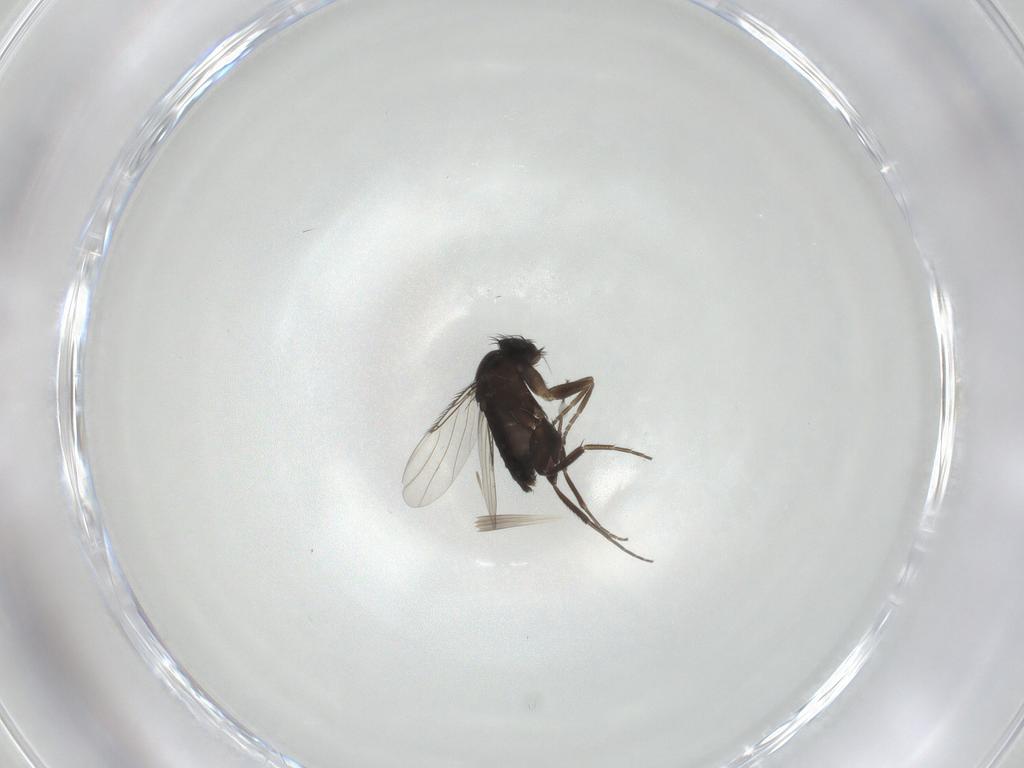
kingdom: Animalia
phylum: Arthropoda
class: Insecta
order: Diptera
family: Phoridae
